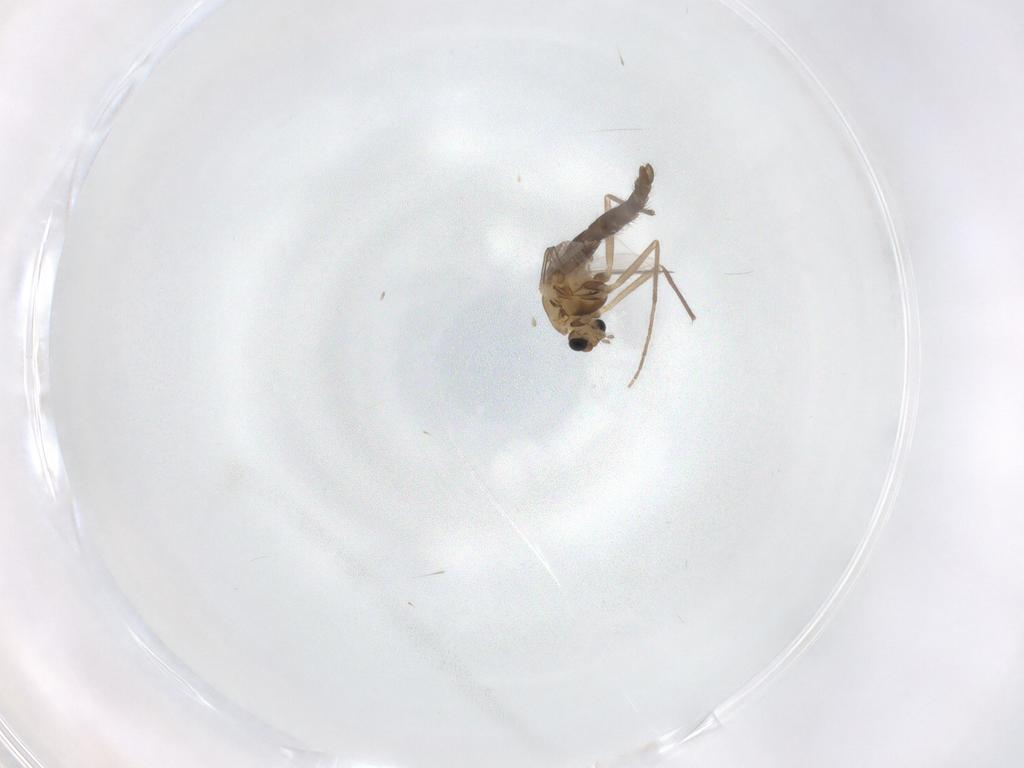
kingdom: Animalia
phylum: Arthropoda
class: Insecta
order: Diptera
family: Chironomidae
